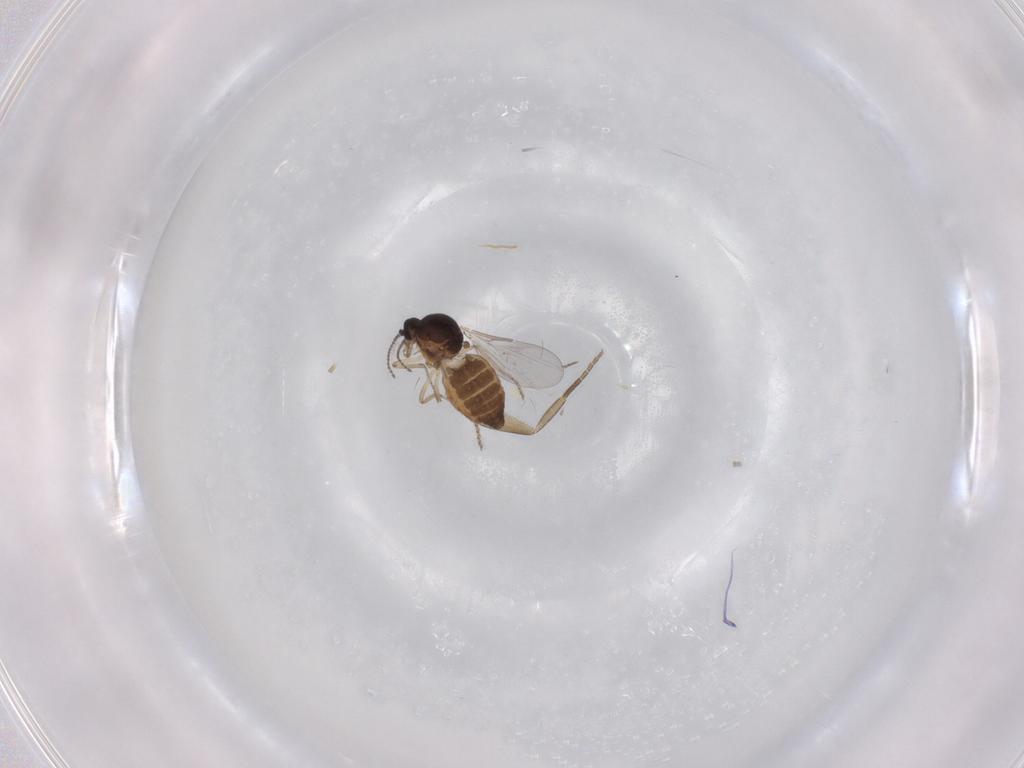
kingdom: Animalia
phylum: Arthropoda
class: Insecta
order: Diptera
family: Phoridae
